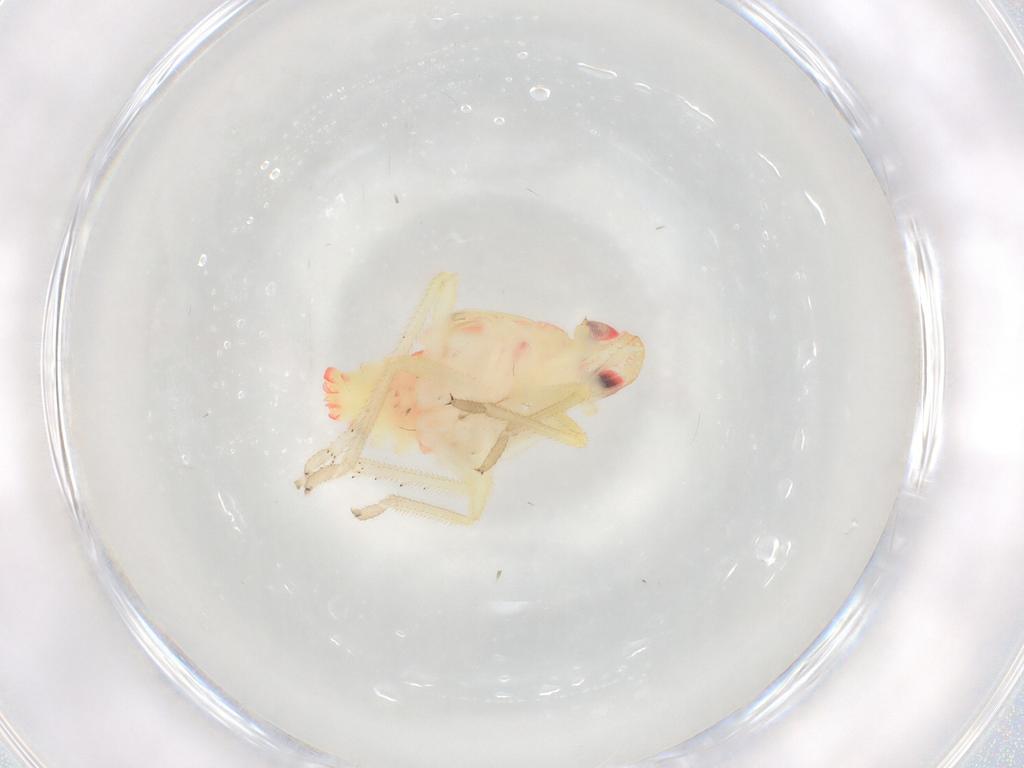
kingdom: Animalia
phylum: Arthropoda
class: Insecta
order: Hemiptera
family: Tropiduchidae
